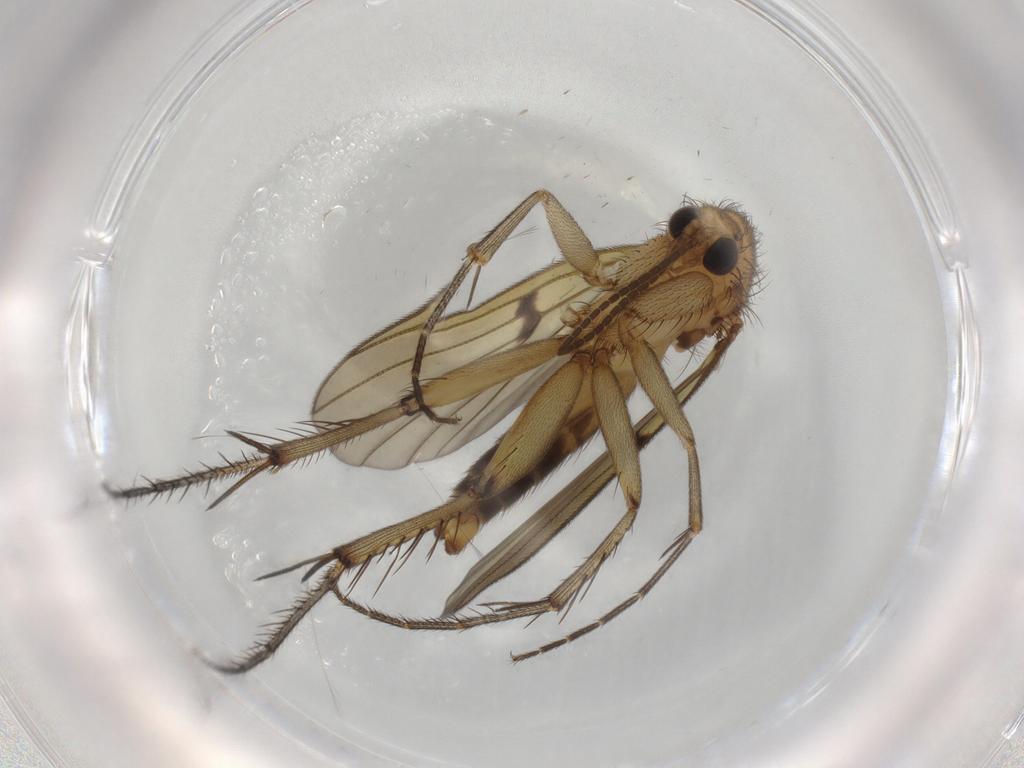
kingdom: Animalia
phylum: Arthropoda
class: Insecta
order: Diptera
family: Mycetophilidae
